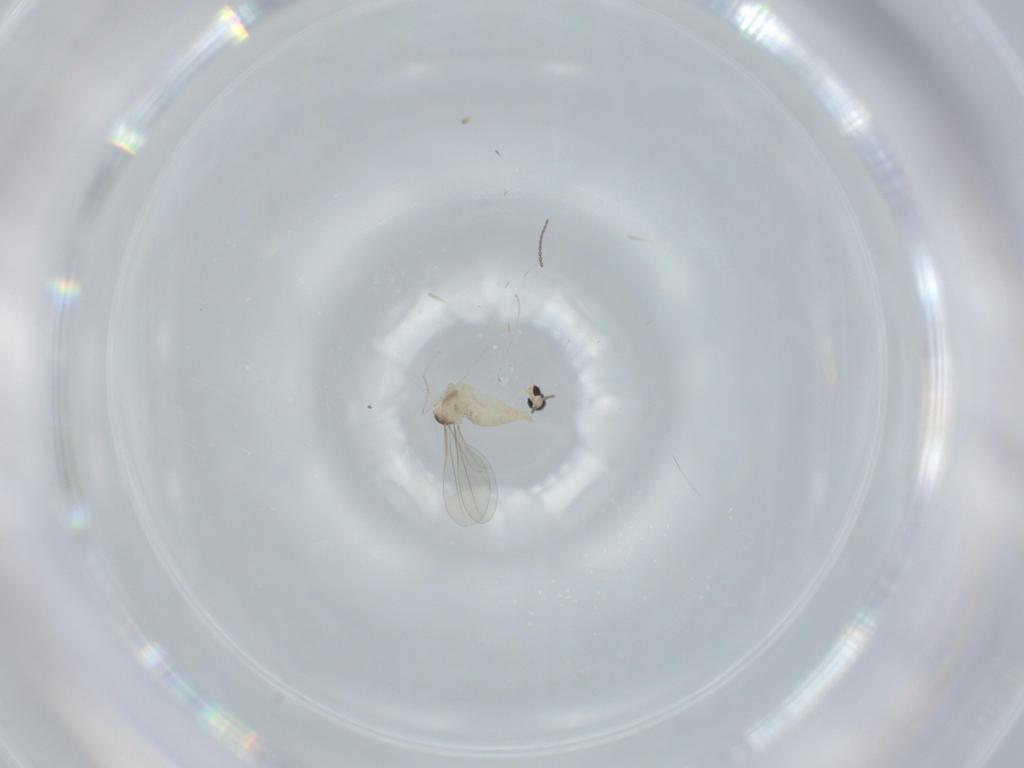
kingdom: Animalia
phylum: Arthropoda
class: Insecta
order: Diptera
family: Cecidomyiidae
